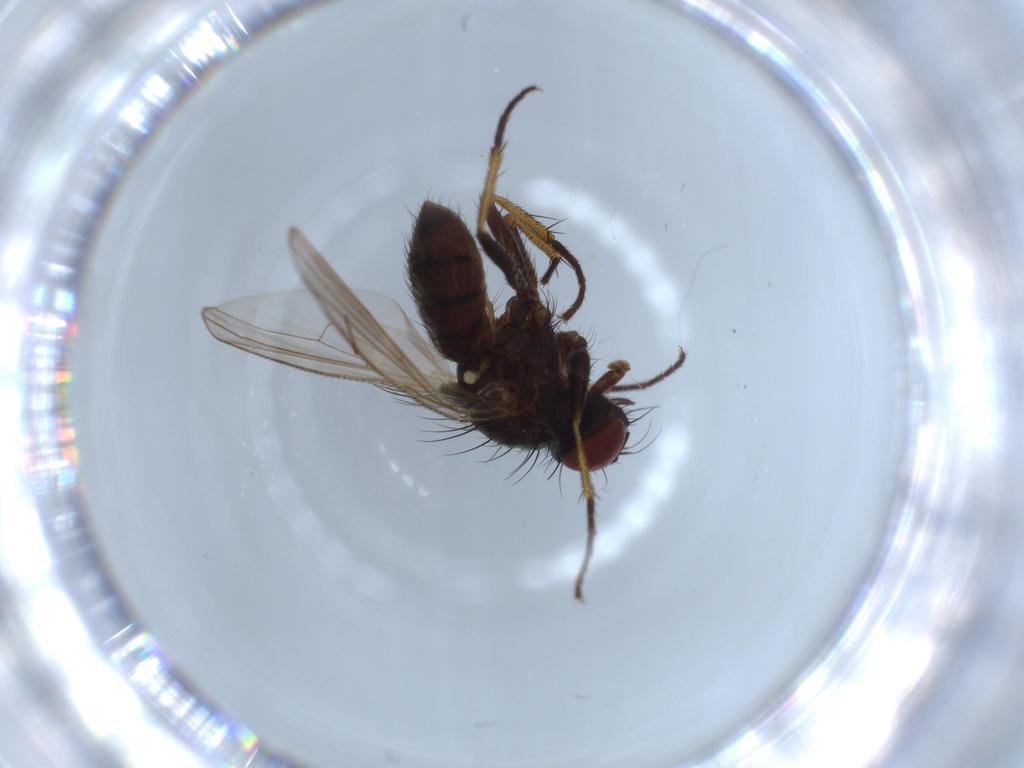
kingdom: Animalia
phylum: Arthropoda
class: Insecta
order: Diptera
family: Muscidae
